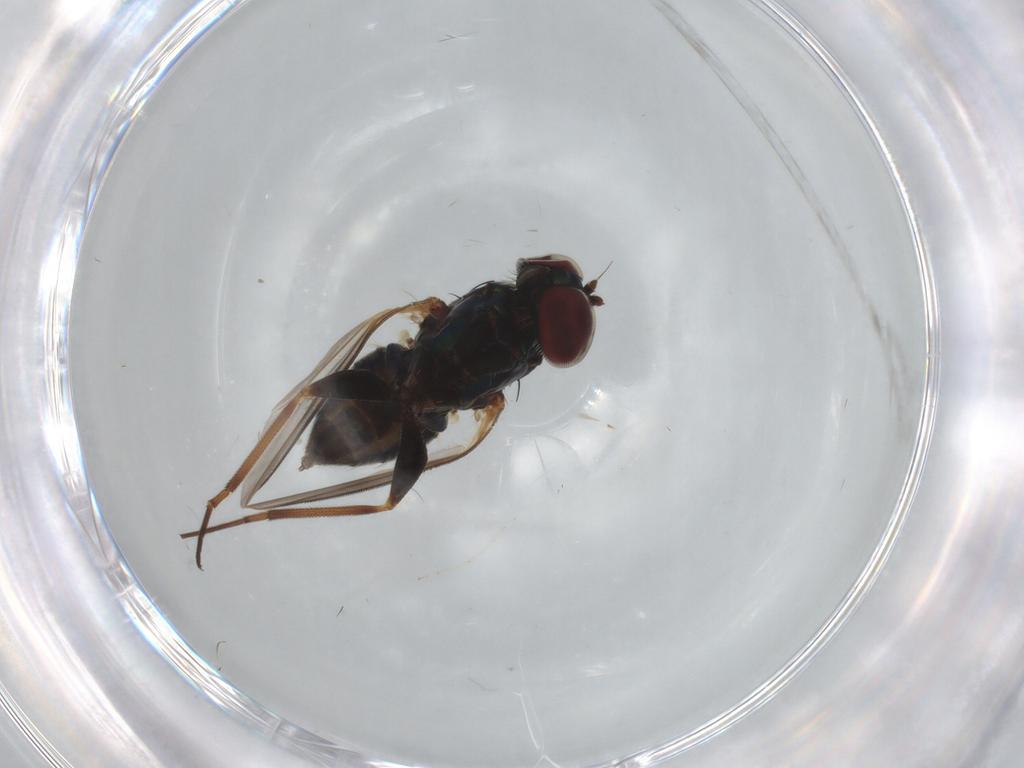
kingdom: Animalia
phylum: Arthropoda
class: Insecta
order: Diptera
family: Dolichopodidae
